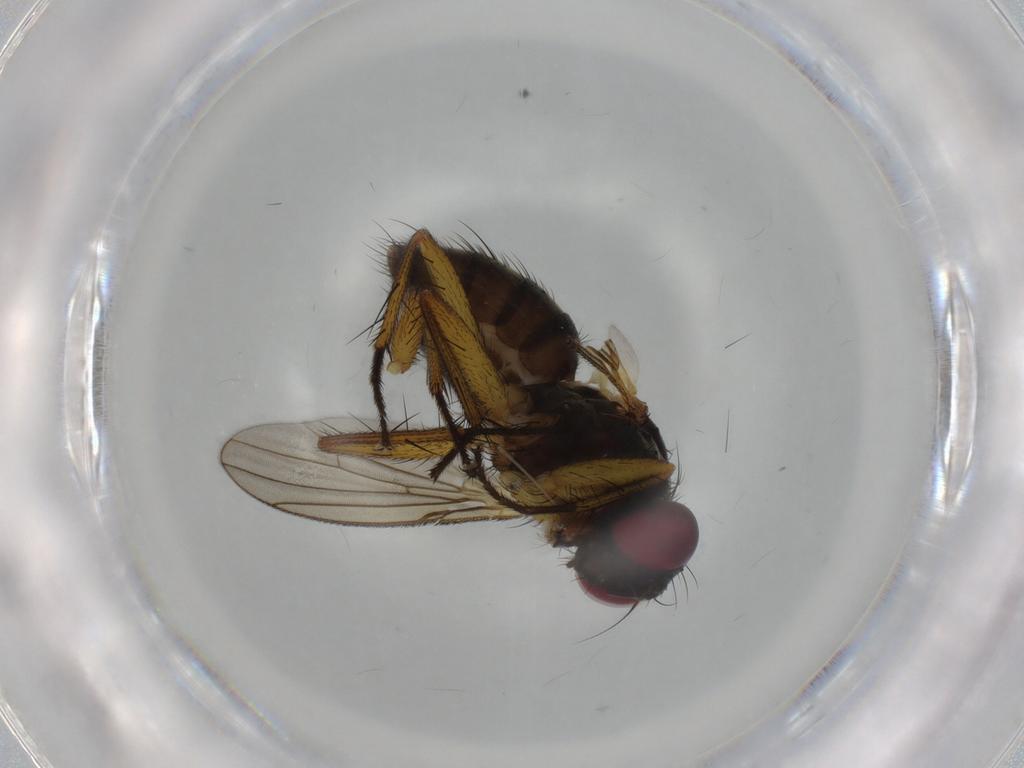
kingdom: Animalia
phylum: Arthropoda
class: Insecta
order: Diptera
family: Muscidae
